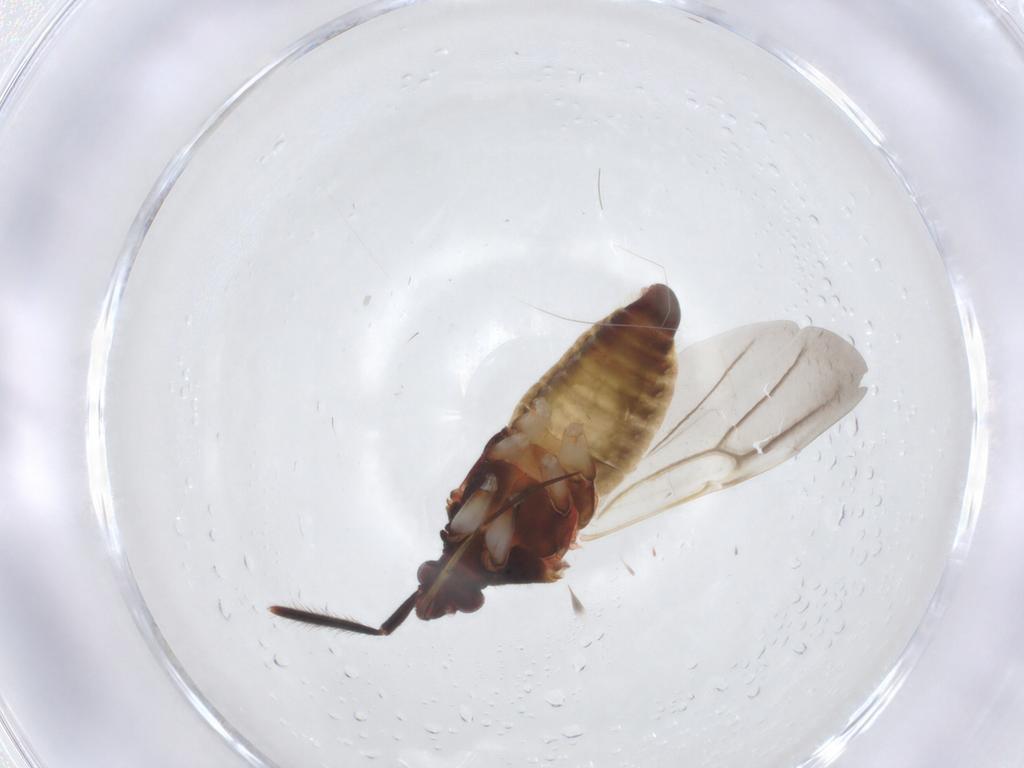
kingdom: Animalia
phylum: Arthropoda
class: Insecta
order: Hemiptera
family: Miridae
